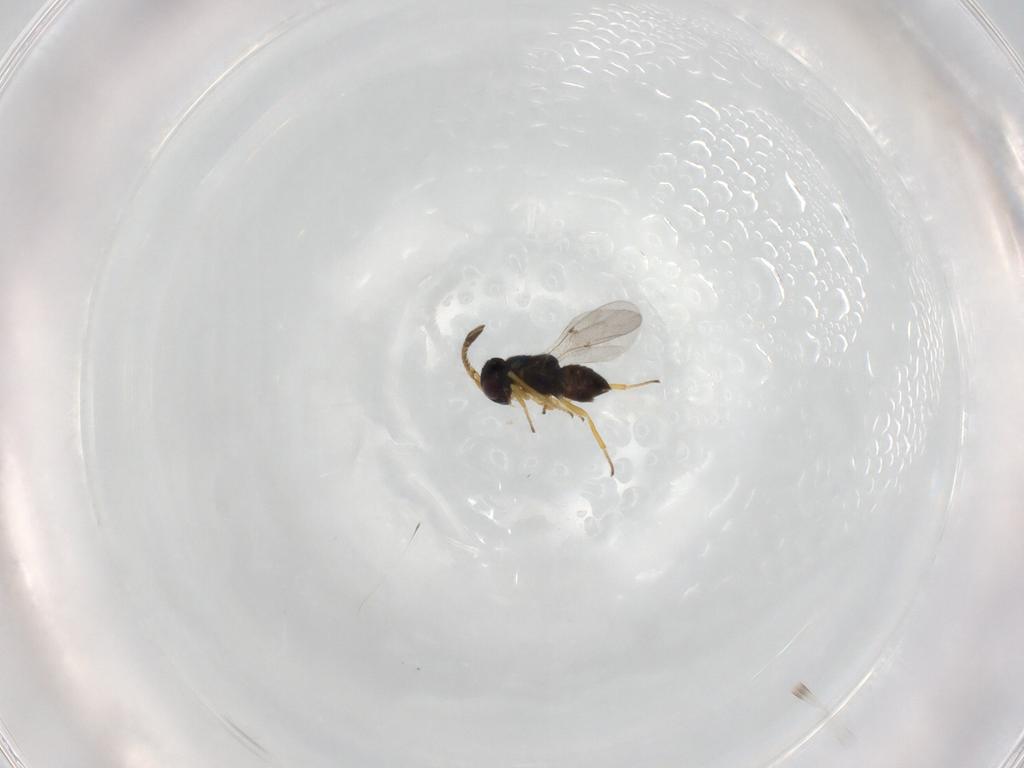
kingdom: Animalia
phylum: Arthropoda
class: Insecta
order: Hymenoptera
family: Encyrtidae
